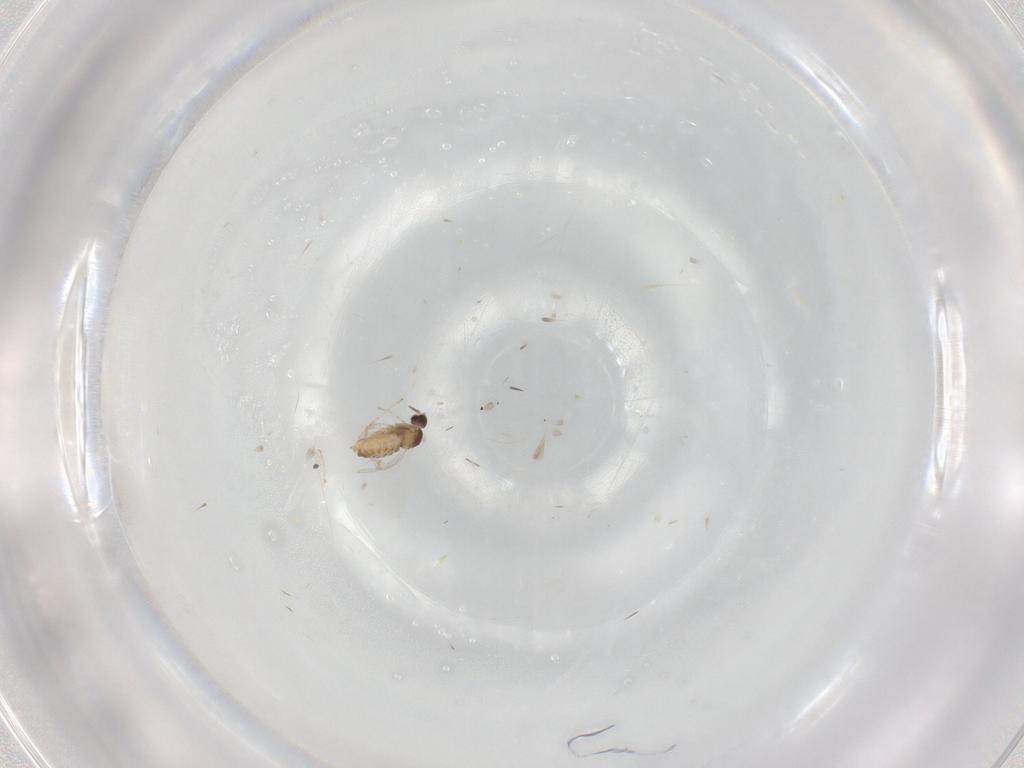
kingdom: Animalia
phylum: Arthropoda
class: Insecta
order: Diptera
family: Cecidomyiidae
